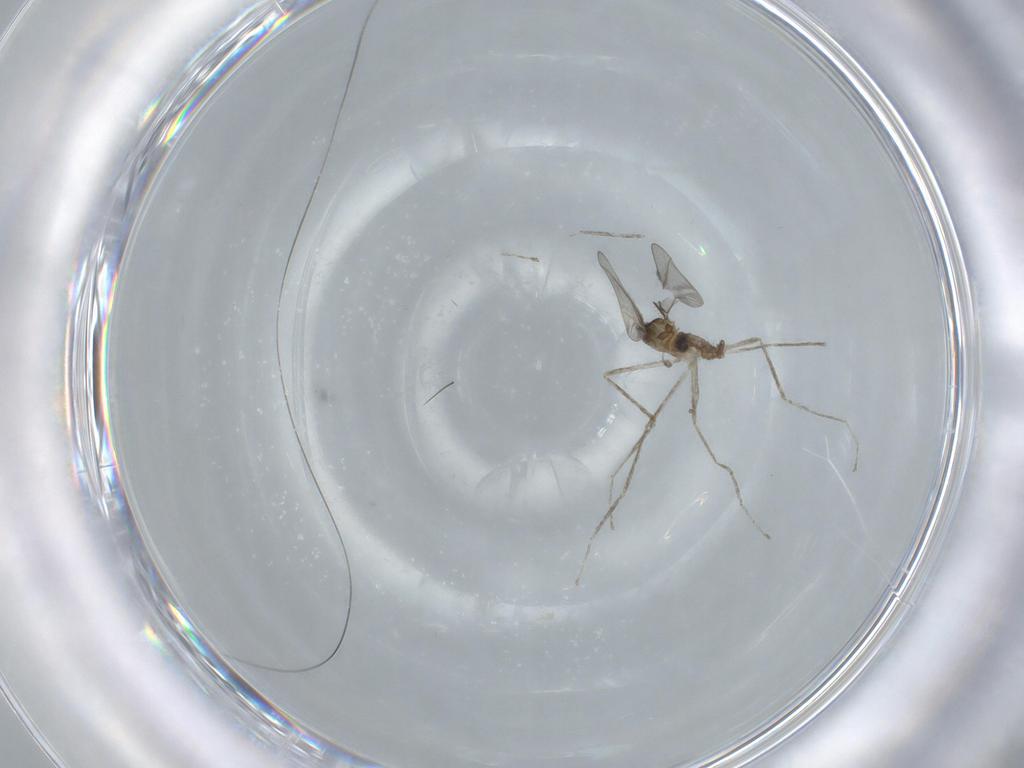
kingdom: Animalia
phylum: Arthropoda
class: Insecta
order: Diptera
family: Cecidomyiidae
